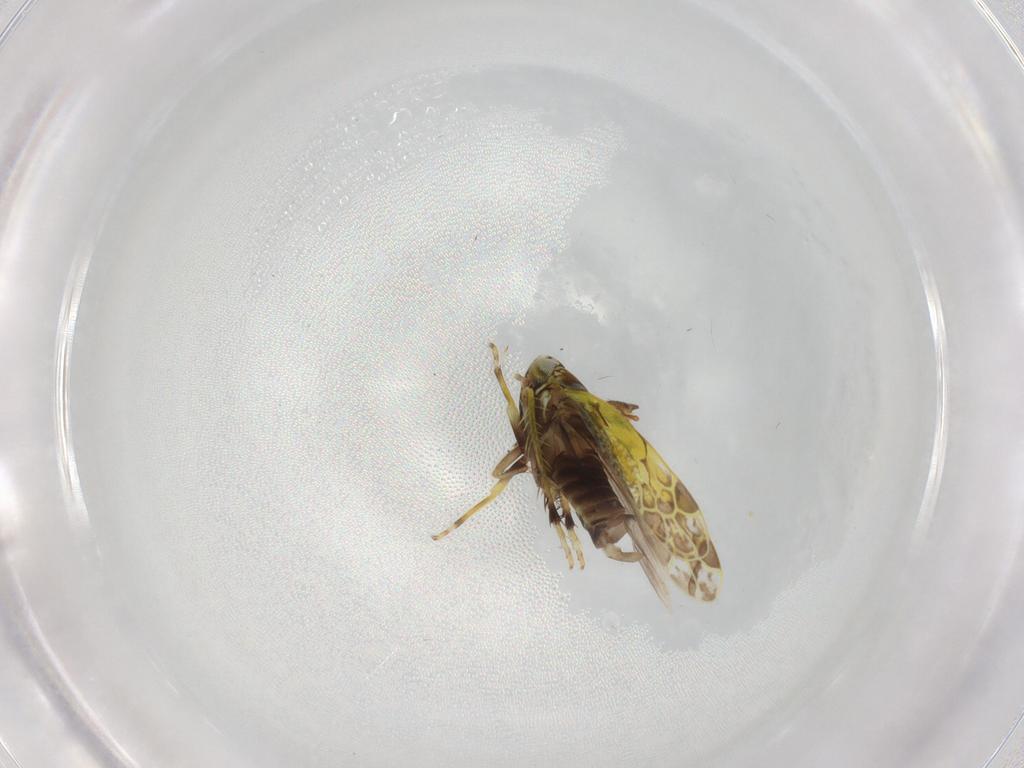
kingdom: Animalia
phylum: Arthropoda
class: Insecta
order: Hemiptera
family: Cicadellidae
